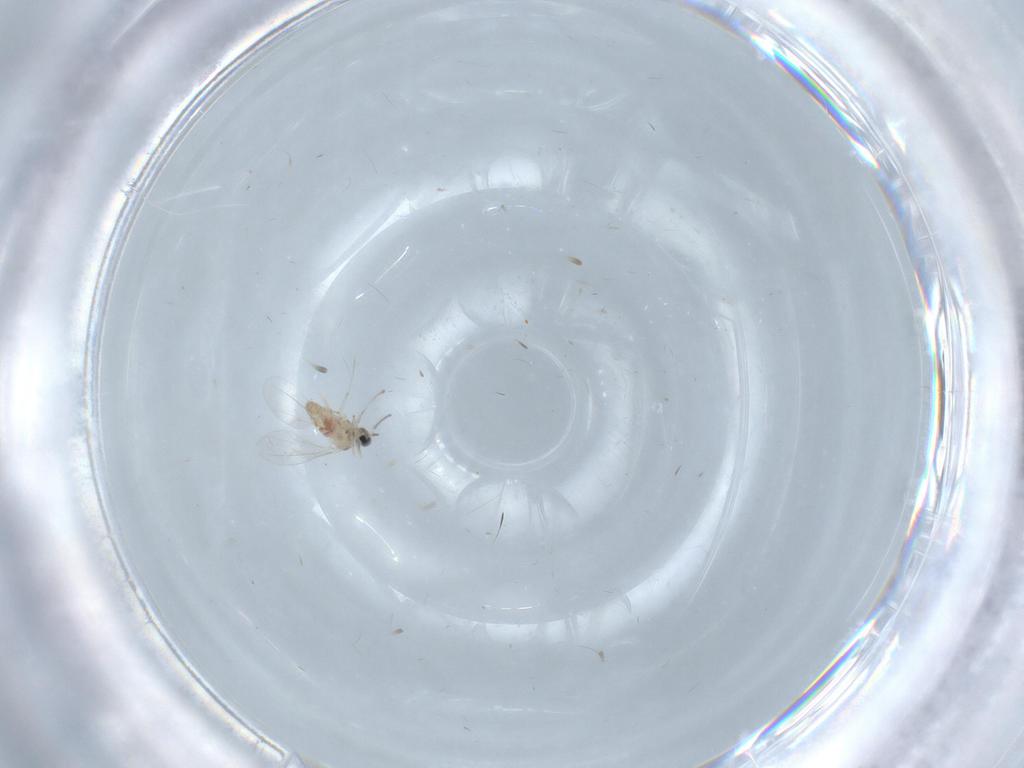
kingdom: Animalia
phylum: Arthropoda
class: Insecta
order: Diptera
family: Cecidomyiidae
